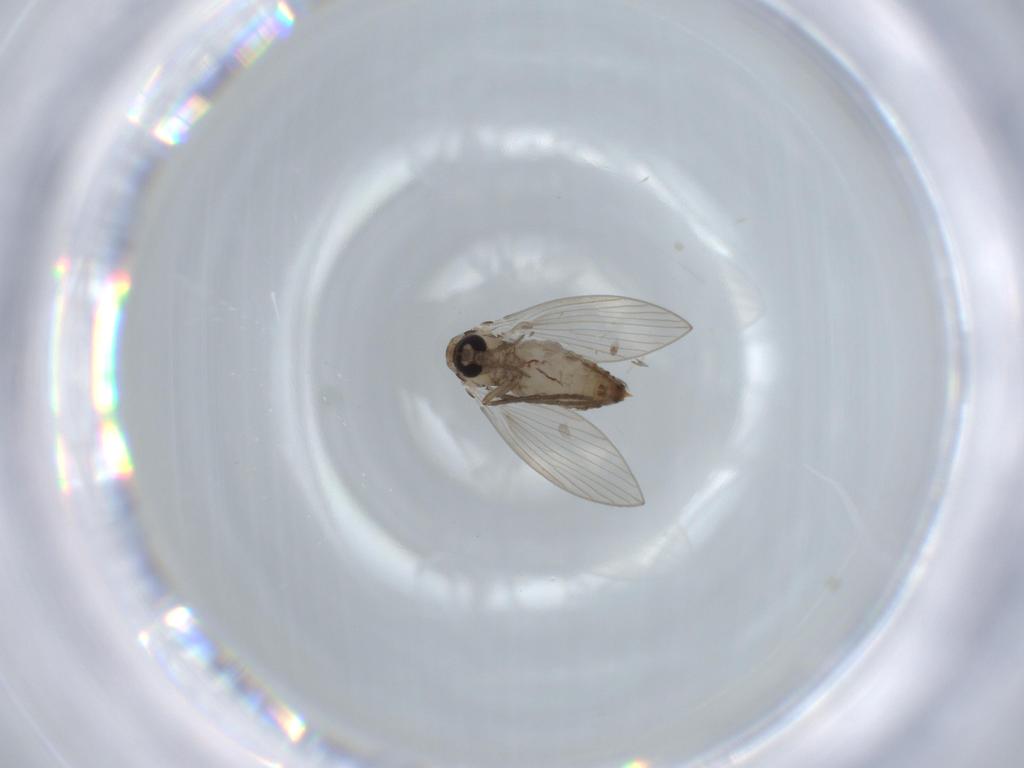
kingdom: Animalia
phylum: Arthropoda
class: Insecta
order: Diptera
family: Psychodidae
